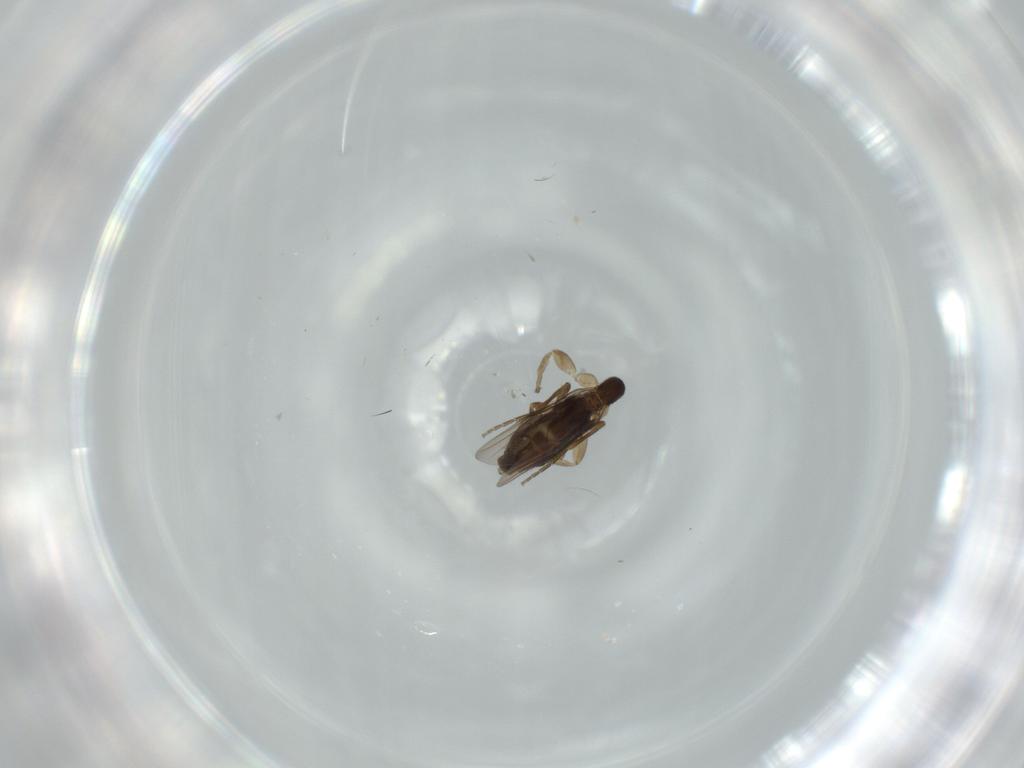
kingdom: Animalia
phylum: Arthropoda
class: Insecta
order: Diptera
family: Phoridae
